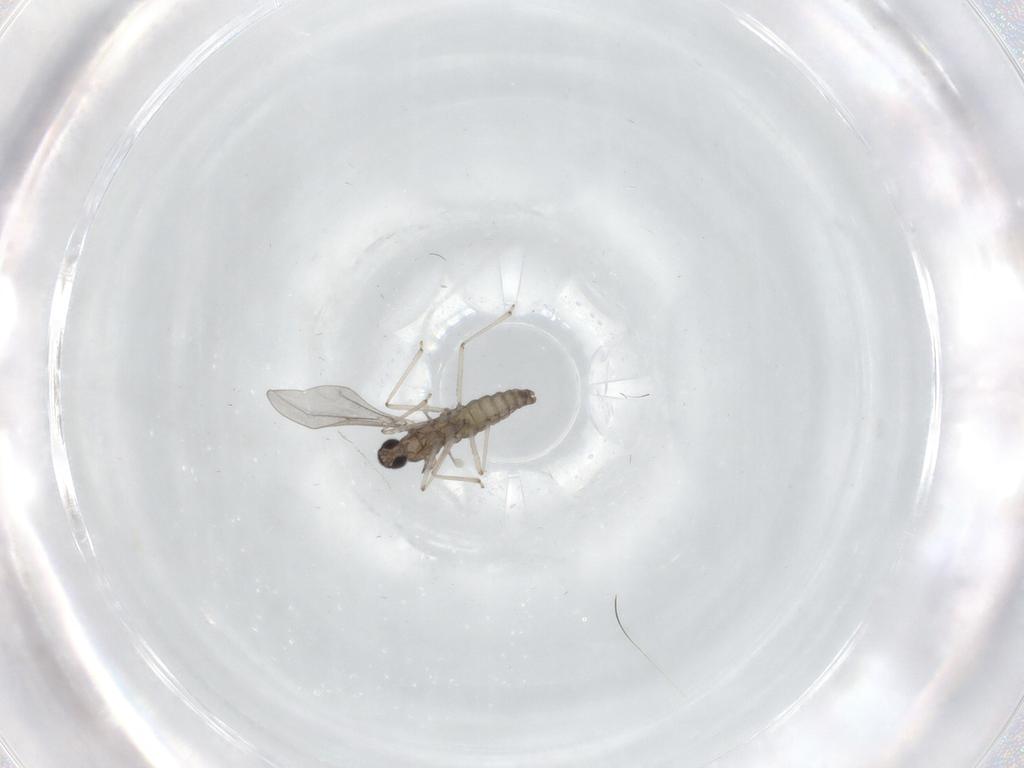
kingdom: Animalia
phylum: Arthropoda
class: Insecta
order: Diptera
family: Cecidomyiidae
